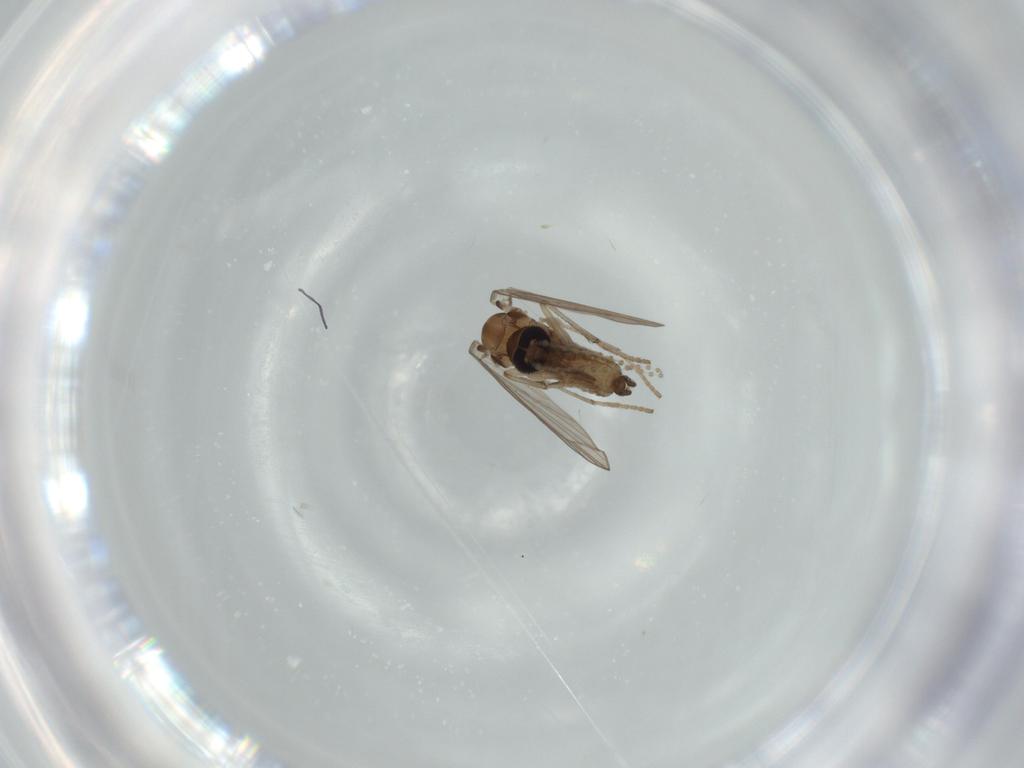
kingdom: Animalia
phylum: Arthropoda
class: Insecta
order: Diptera
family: Psychodidae
